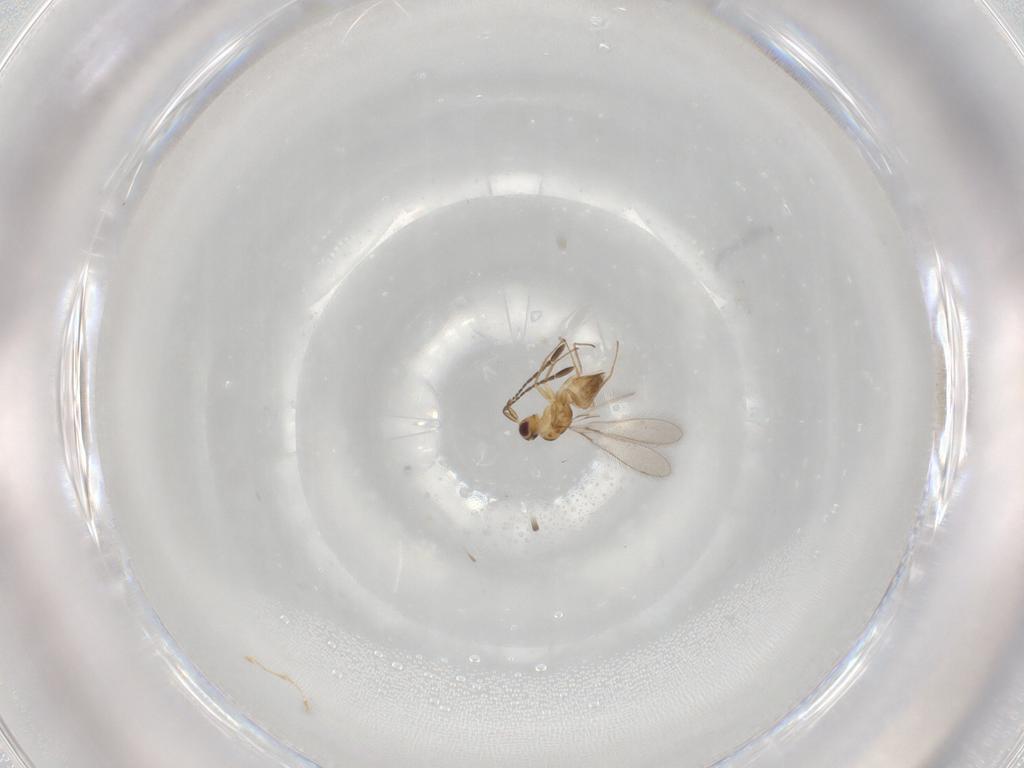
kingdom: Animalia
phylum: Arthropoda
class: Insecta
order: Hymenoptera
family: Mymaridae
